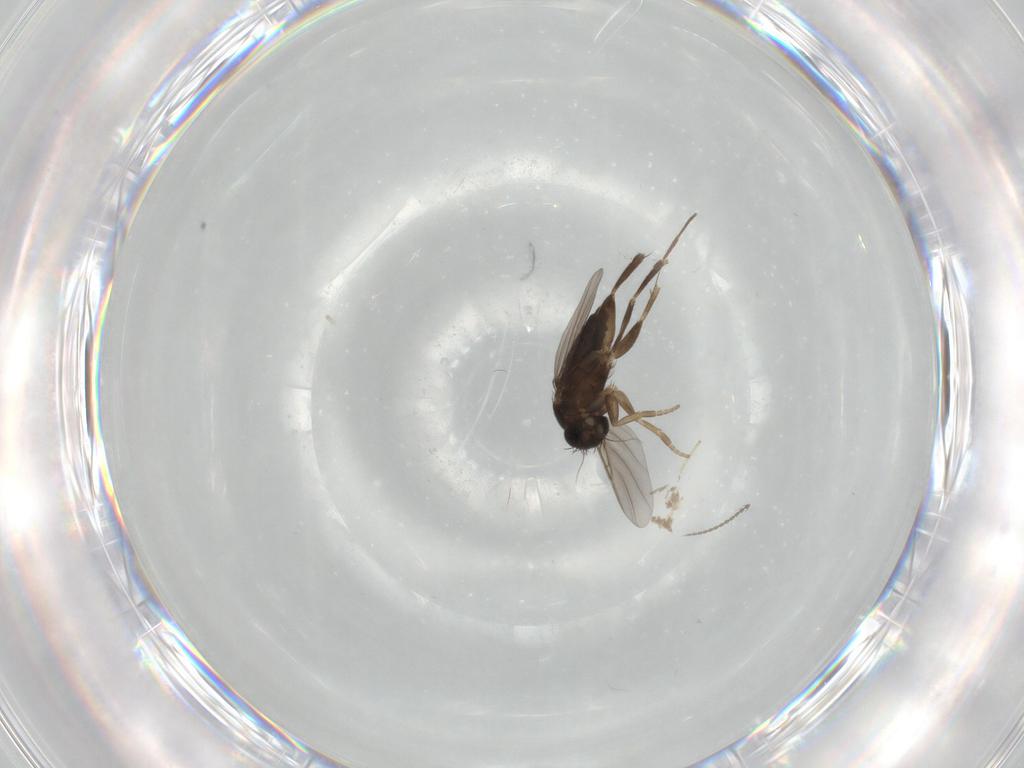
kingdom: Animalia
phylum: Arthropoda
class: Insecta
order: Diptera
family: Cecidomyiidae
